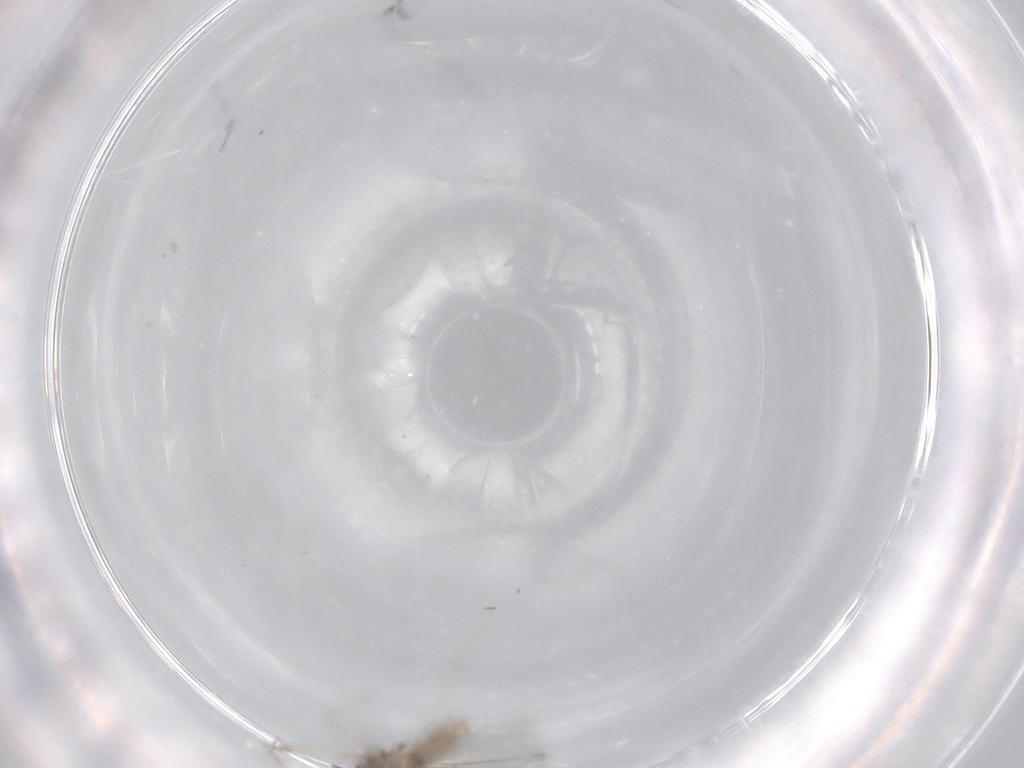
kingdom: Animalia
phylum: Arthropoda
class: Insecta
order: Diptera
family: Cecidomyiidae
